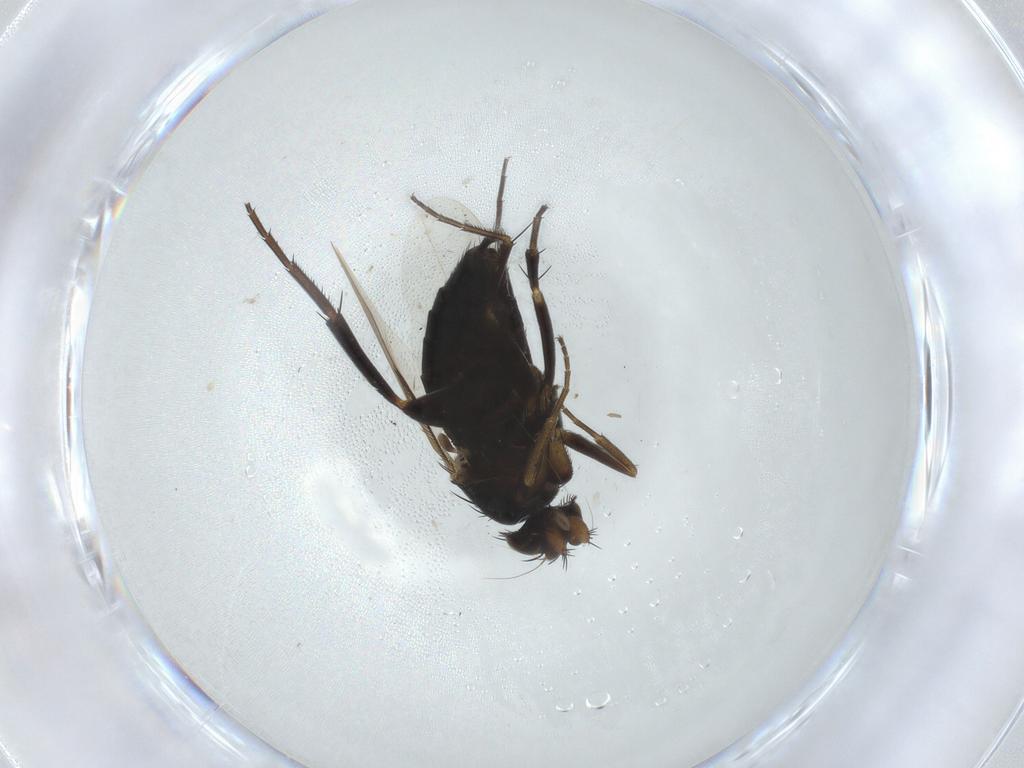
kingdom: Animalia
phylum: Arthropoda
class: Insecta
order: Diptera
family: Phoridae
